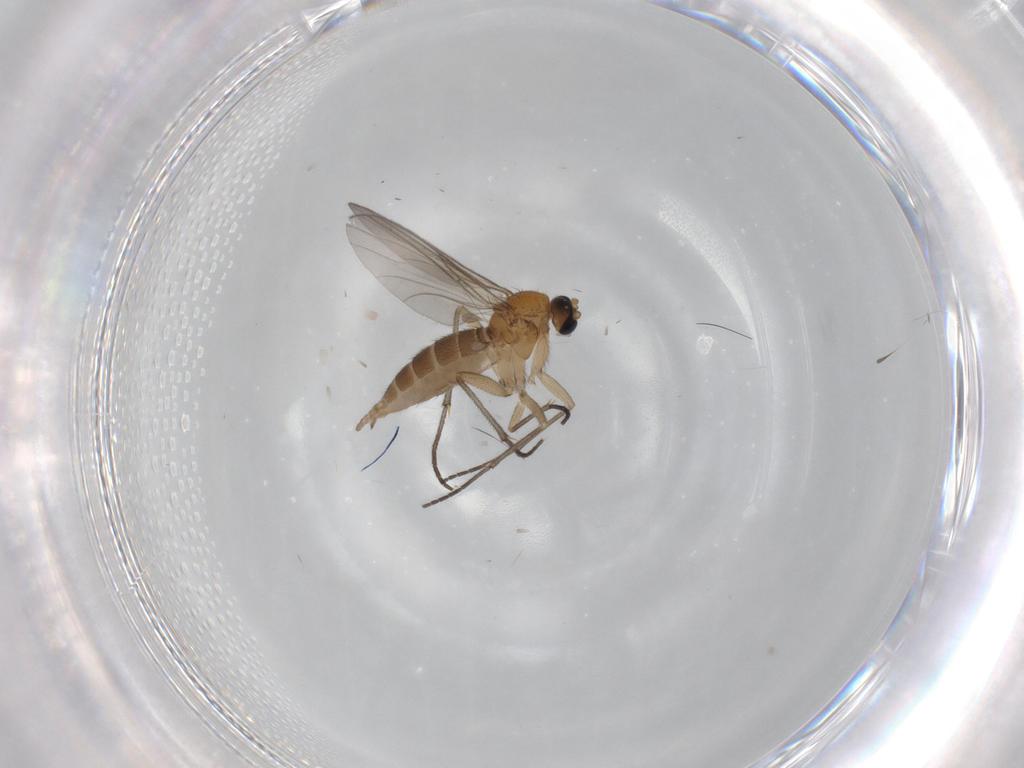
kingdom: Animalia
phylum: Arthropoda
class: Insecta
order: Diptera
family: Sciaridae
